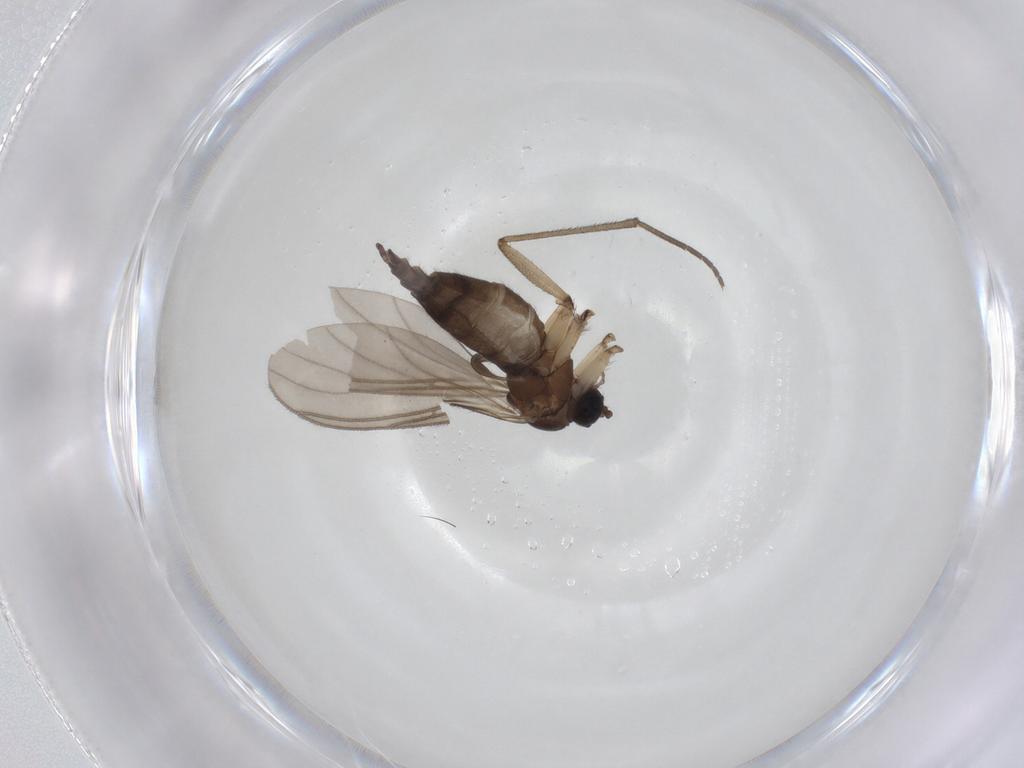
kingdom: Animalia
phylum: Arthropoda
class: Insecta
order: Diptera
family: Sciaridae
